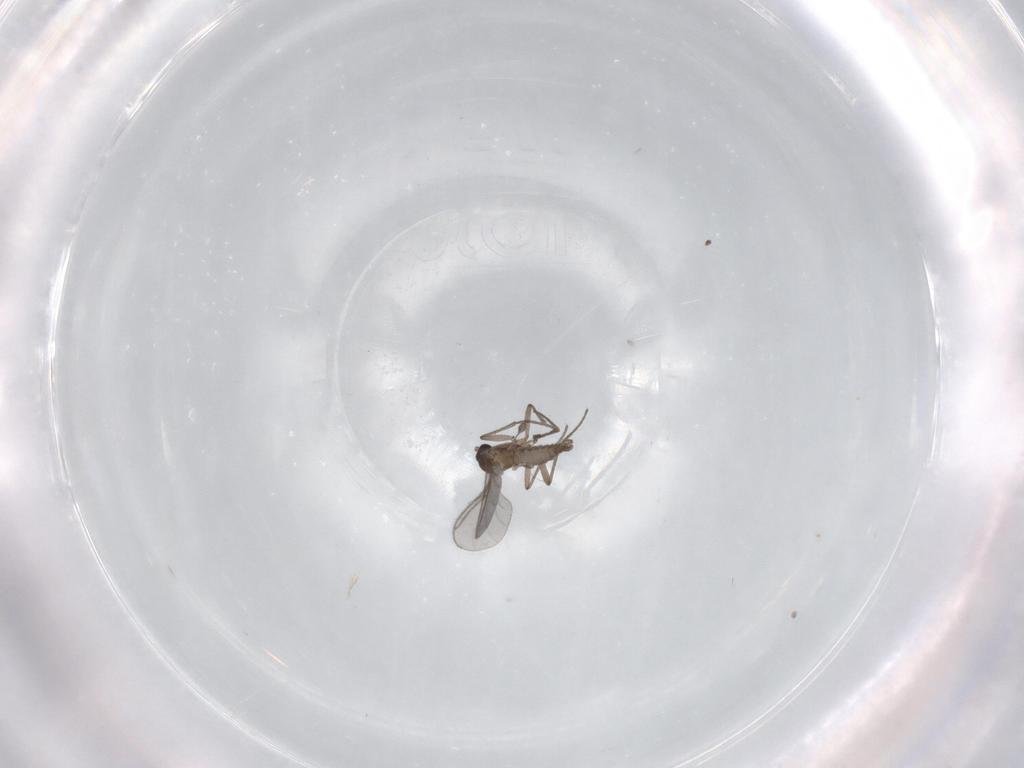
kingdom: Animalia
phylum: Arthropoda
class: Insecta
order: Diptera
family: Sciaridae
